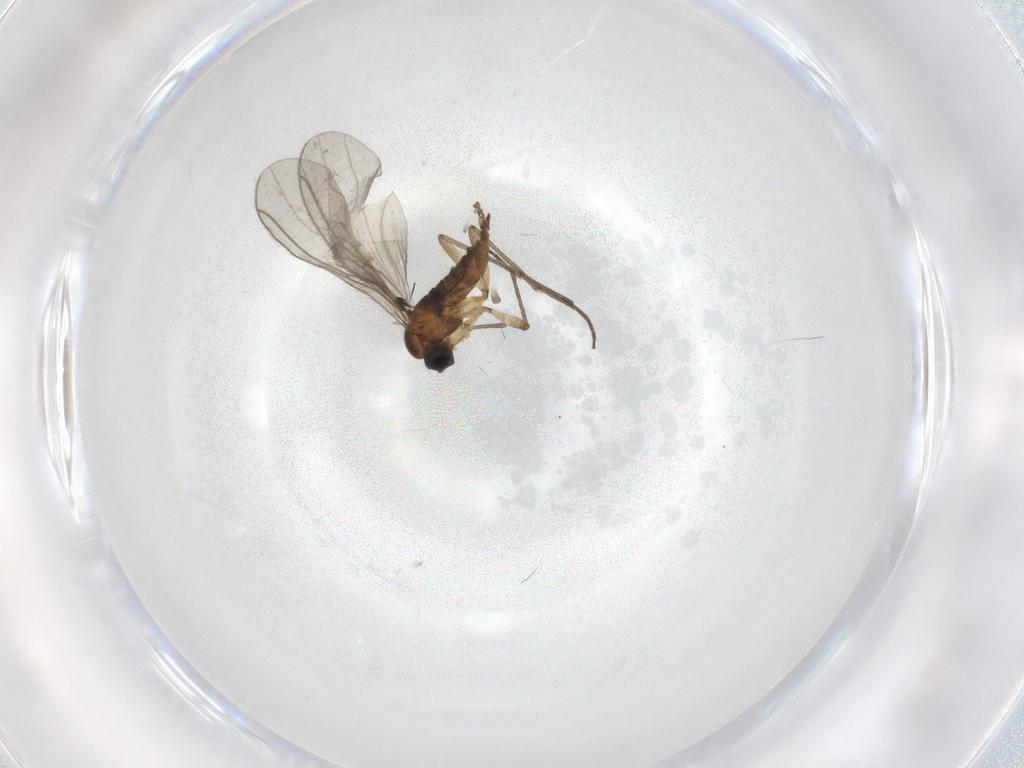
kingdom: Animalia
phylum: Arthropoda
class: Insecta
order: Diptera
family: Sciaridae
